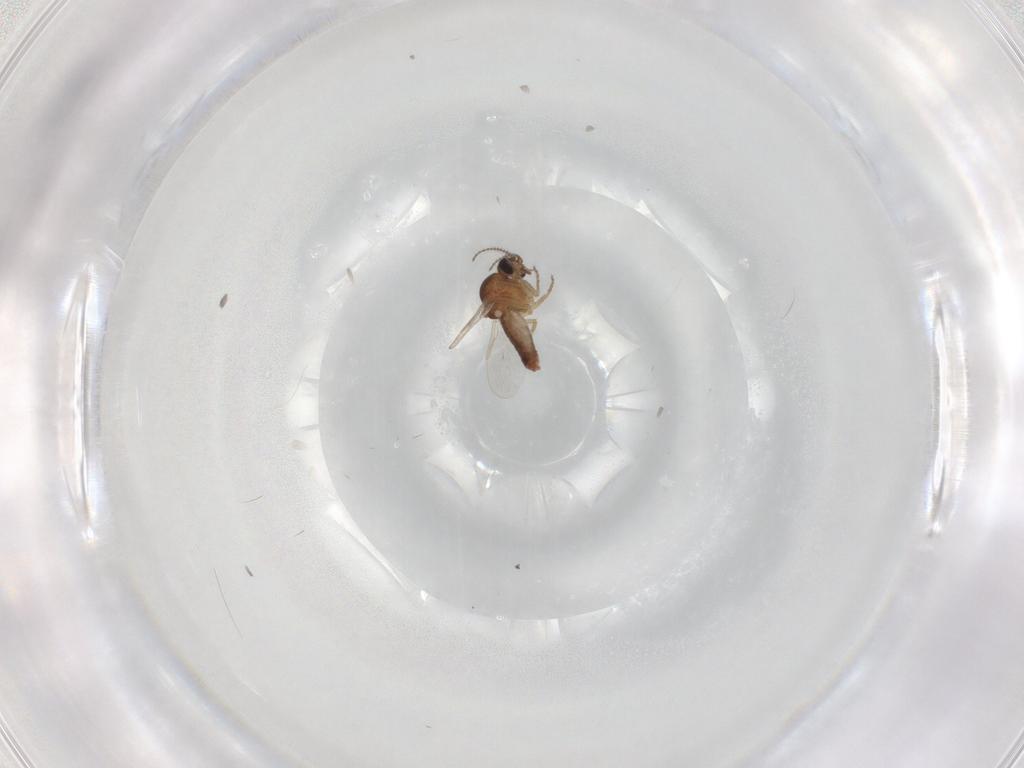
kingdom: Animalia
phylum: Arthropoda
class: Insecta
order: Diptera
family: Ceratopogonidae
